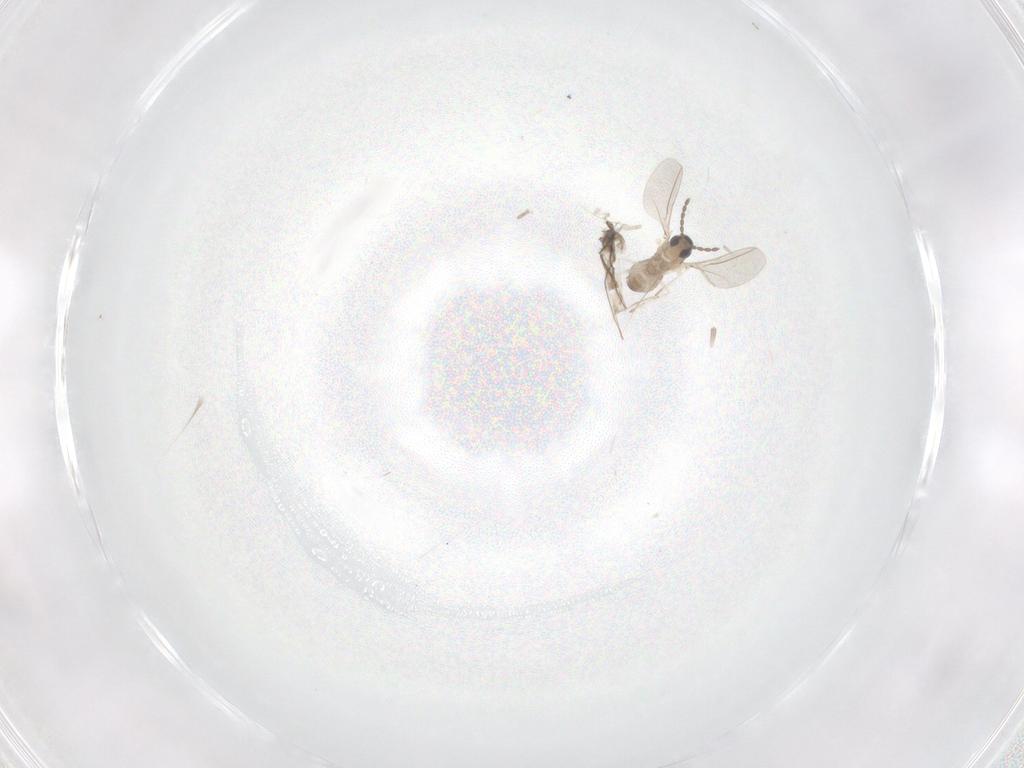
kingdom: Animalia
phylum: Arthropoda
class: Insecta
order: Diptera
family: Cecidomyiidae
